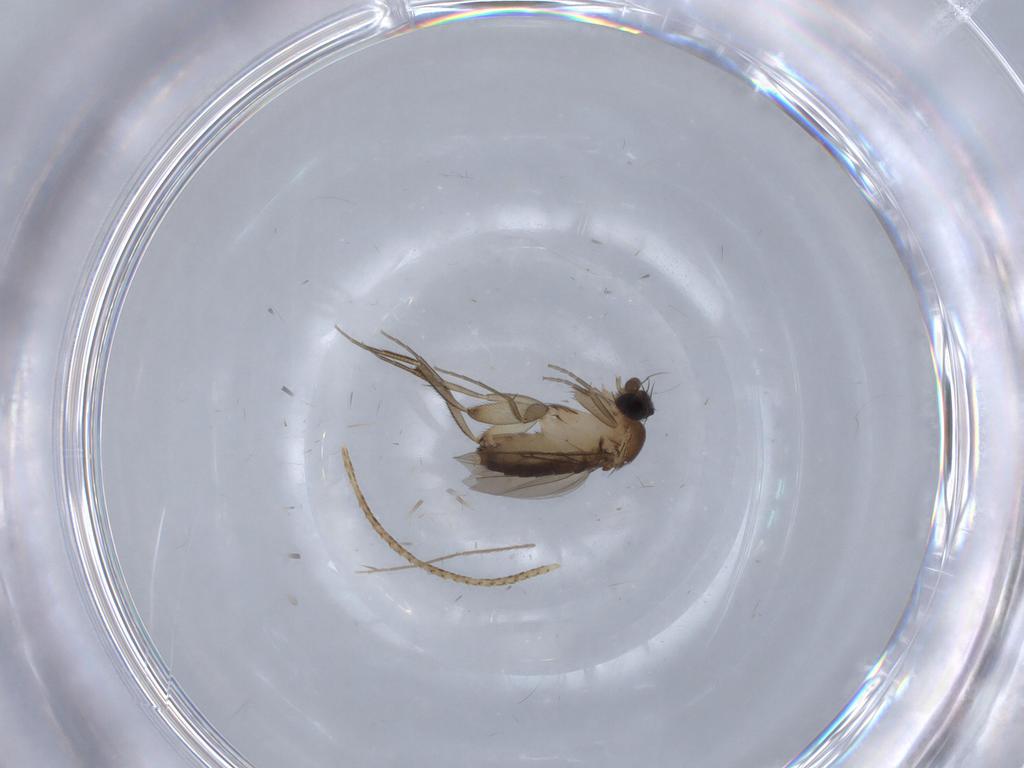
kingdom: Animalia
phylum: Arthropoda
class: Insecta
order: Diptera
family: Phoridae
